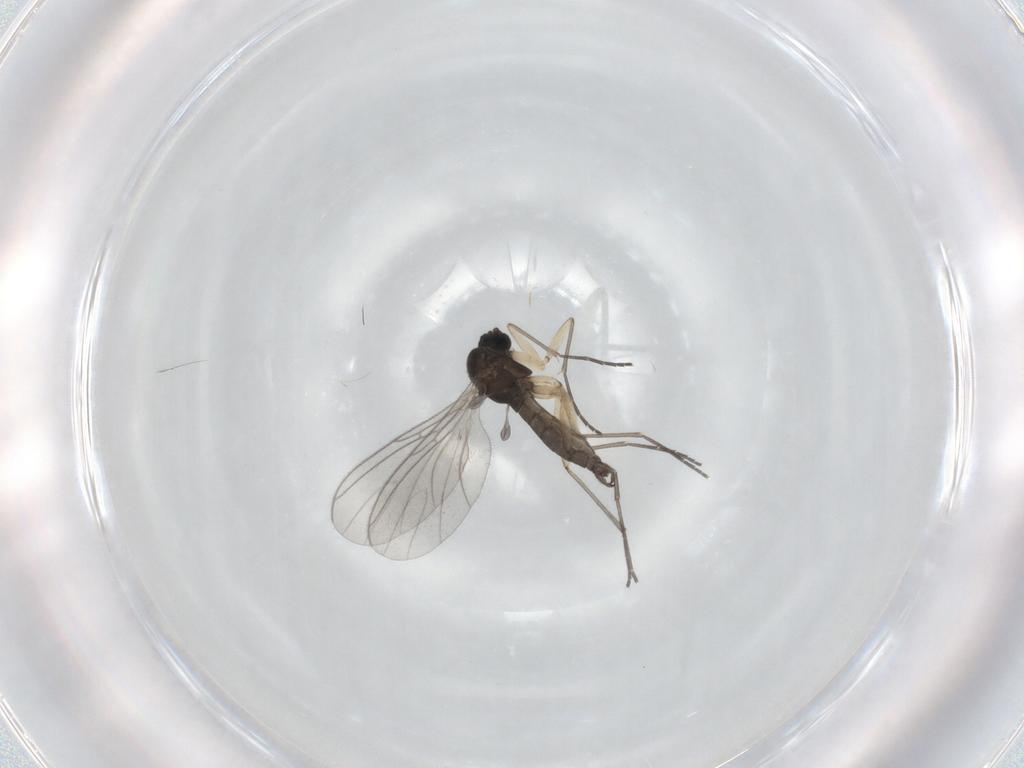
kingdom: Animalia
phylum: Arthropoda
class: Insecta
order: Diptera
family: Sciaridae
